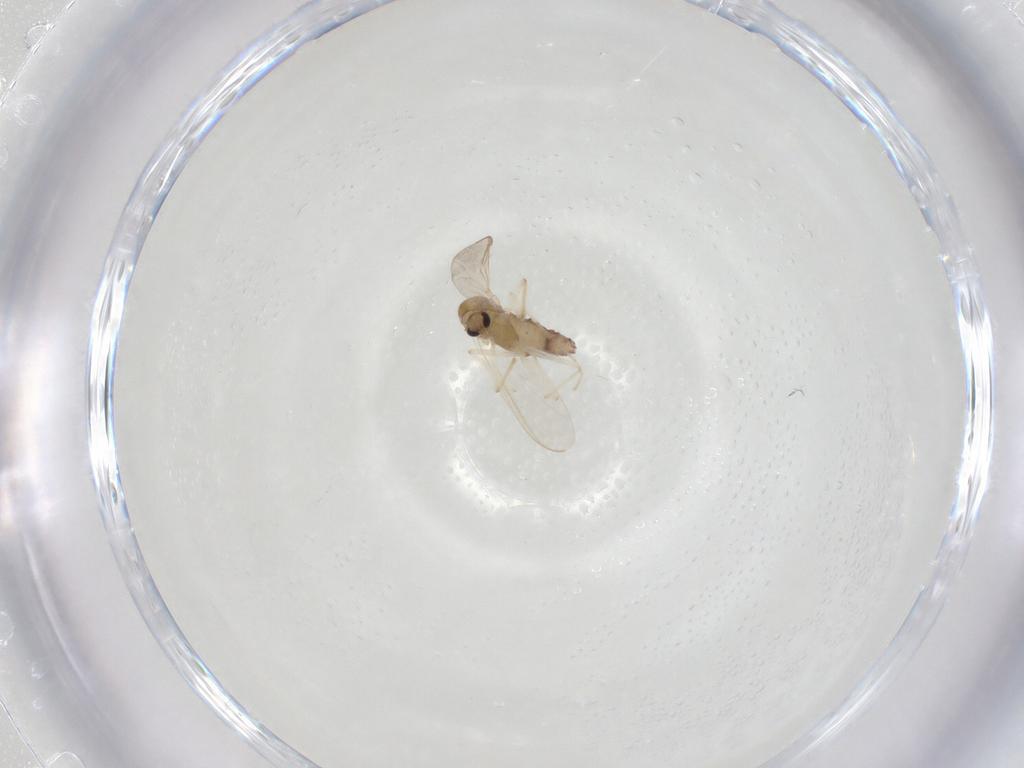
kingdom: Animalia
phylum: Arthropoda
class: Insecta
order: Diptera
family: Chironomidae
